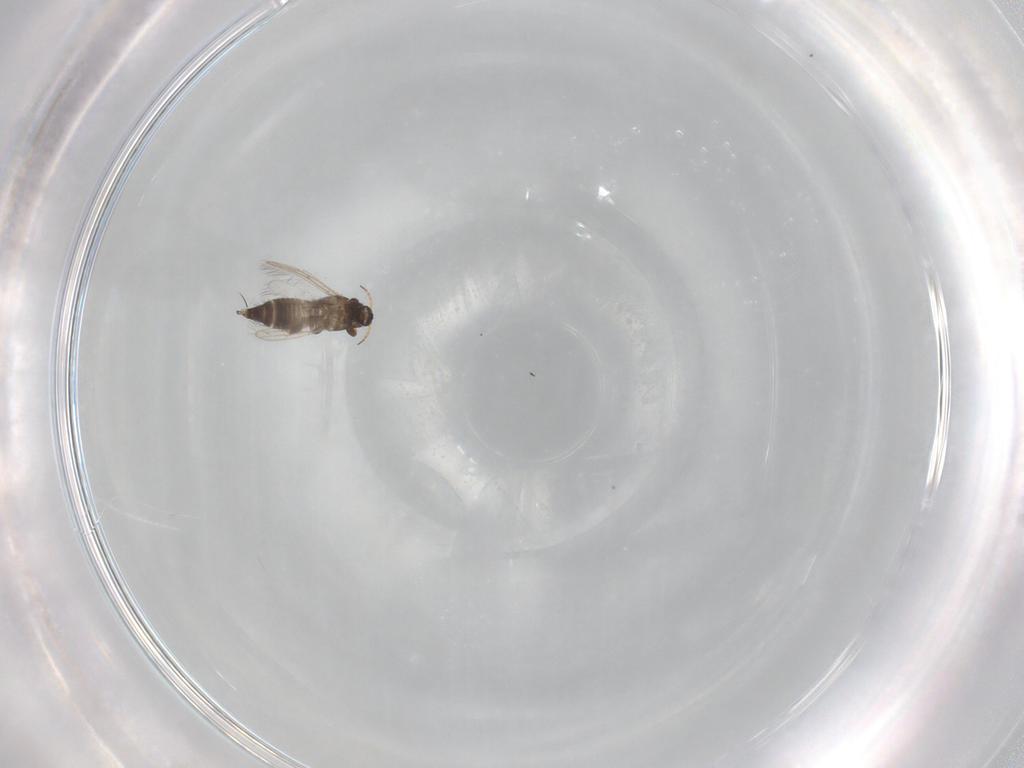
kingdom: Animalia
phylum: Arthropoda
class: Insecta
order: Thysanoptera
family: Melanthripidae
